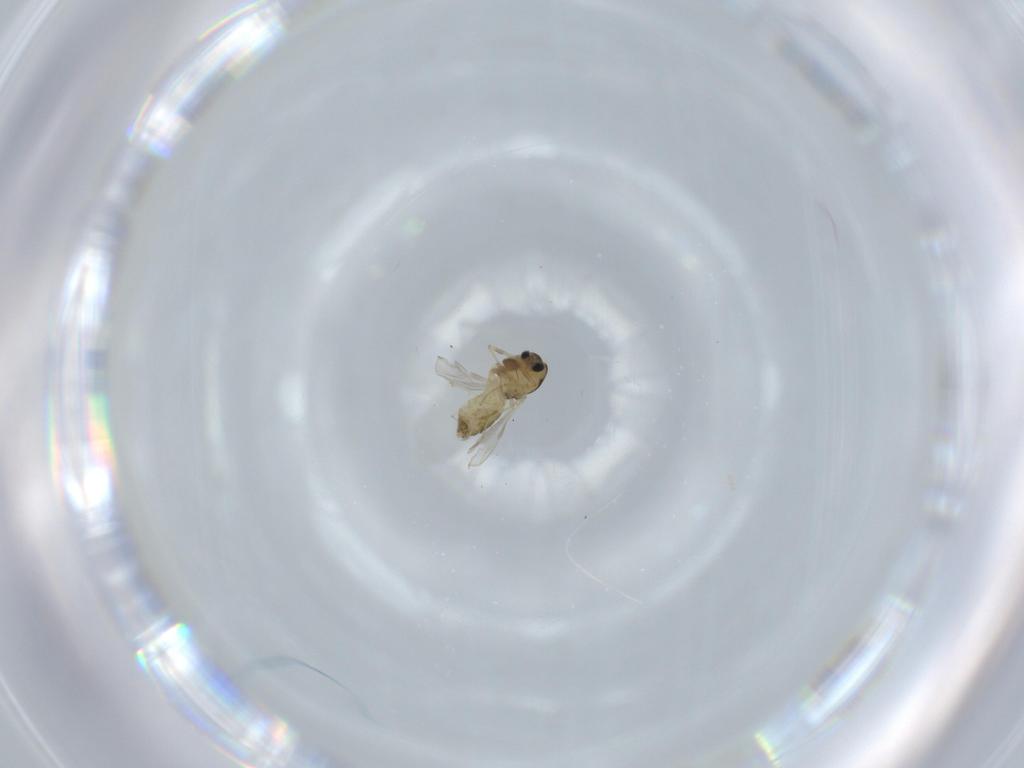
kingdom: Animalia
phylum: Arthropoda
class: Insecta
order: Diptera
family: Chironomidae
